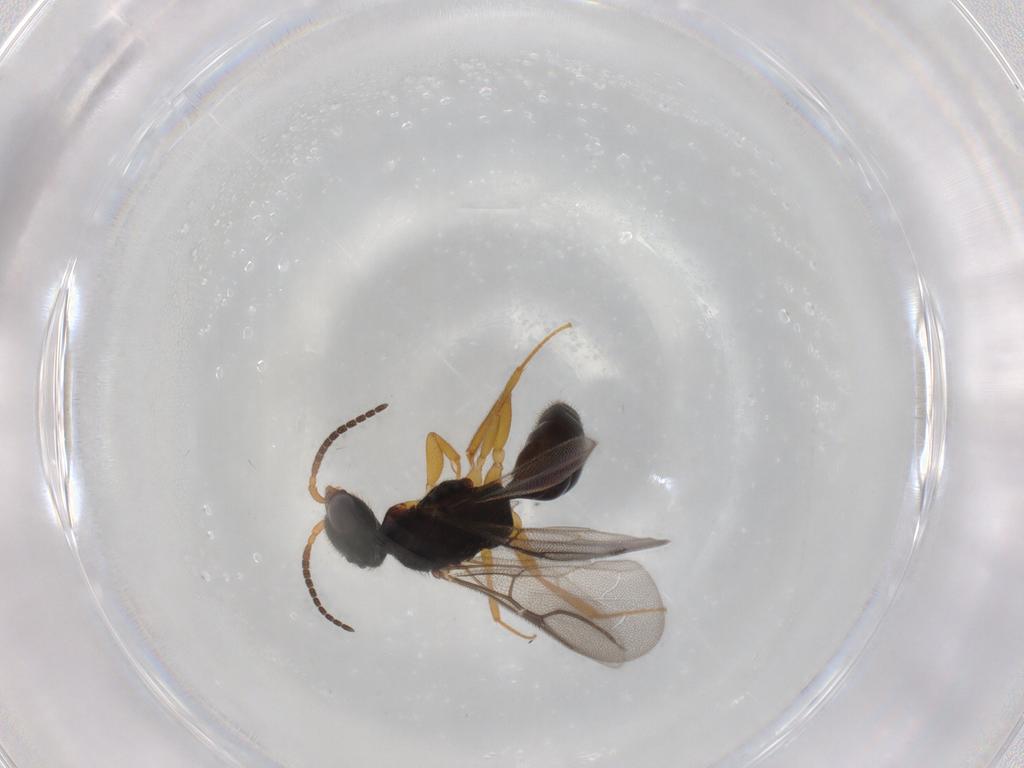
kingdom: Animalia
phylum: Arthropoda
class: Insecta
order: Hymenoptera
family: Bethylidae
